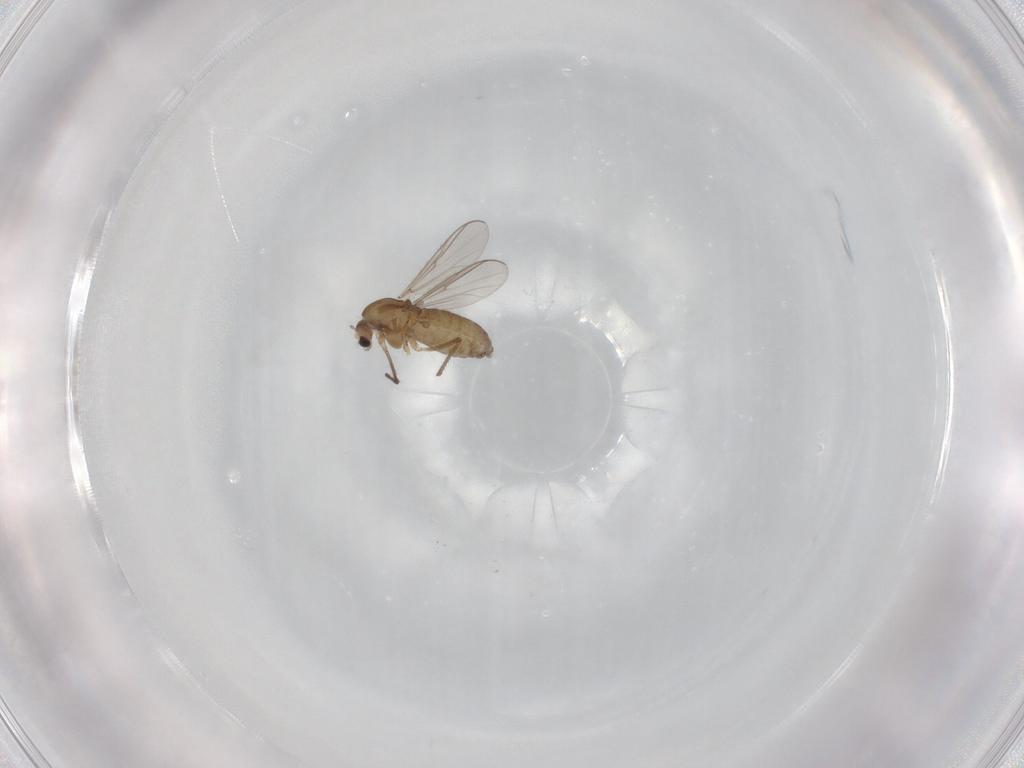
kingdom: Animalia
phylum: Arthropoda
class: Insecta
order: Diptera
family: Chironomidae
